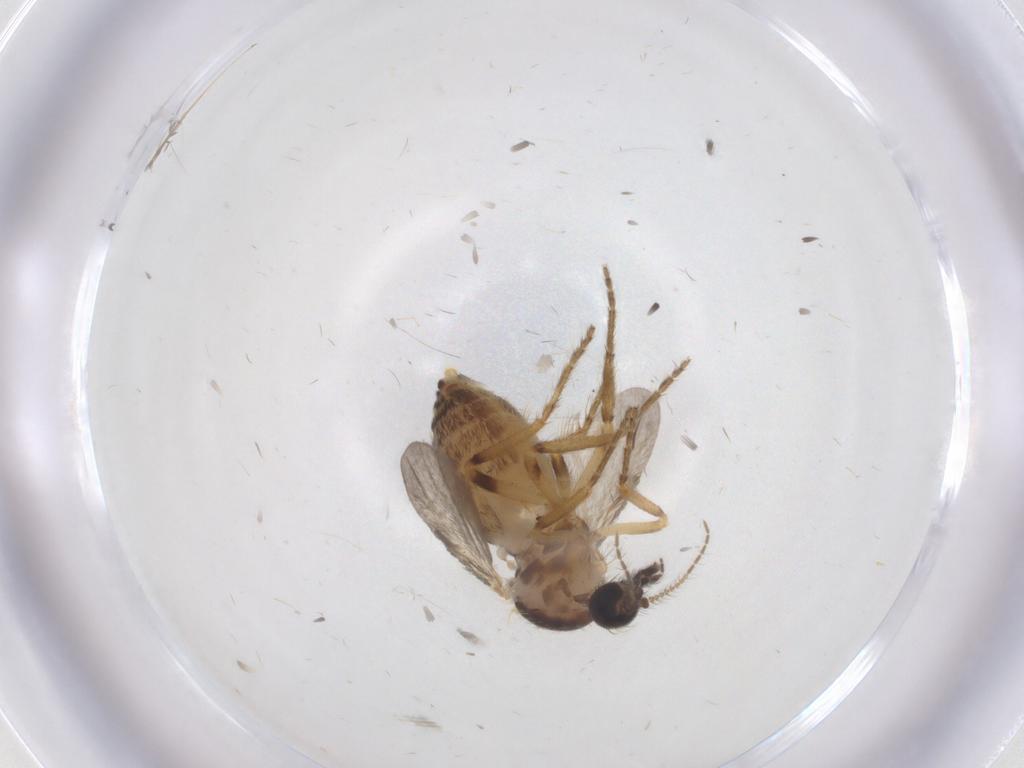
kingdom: Animalia
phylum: Arthropoda
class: Insecta
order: Diptera
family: Ceratopogonidae
